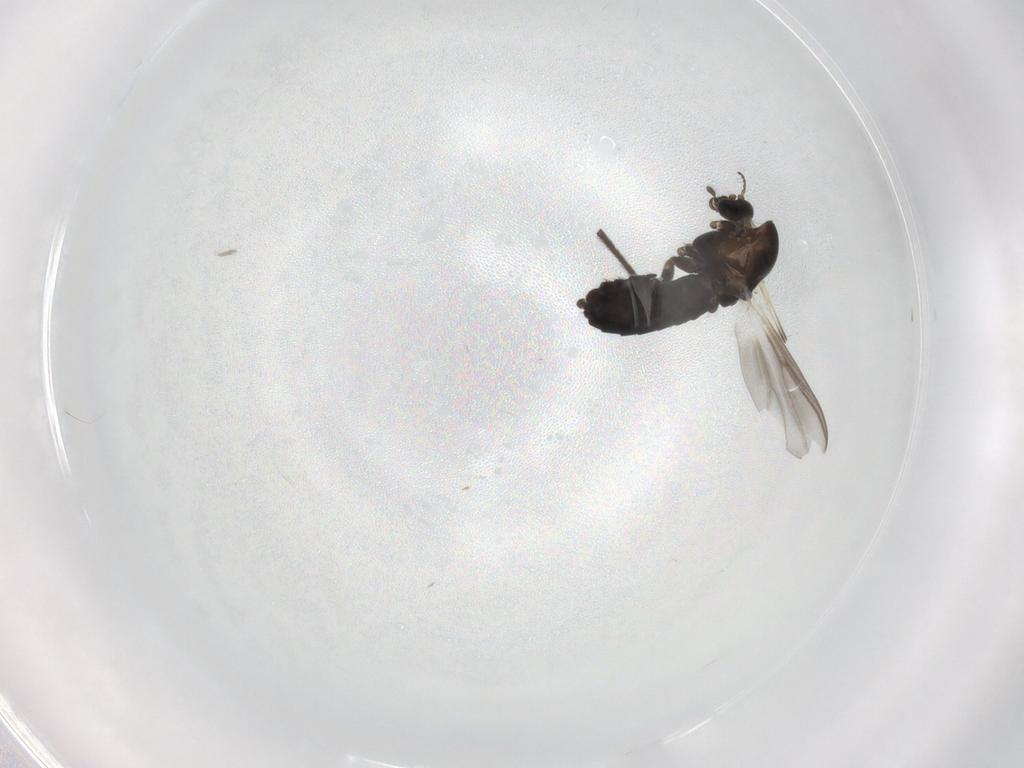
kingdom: Animalia
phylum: Arthropoda
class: Insecta
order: Diptera
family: Chironomidae
